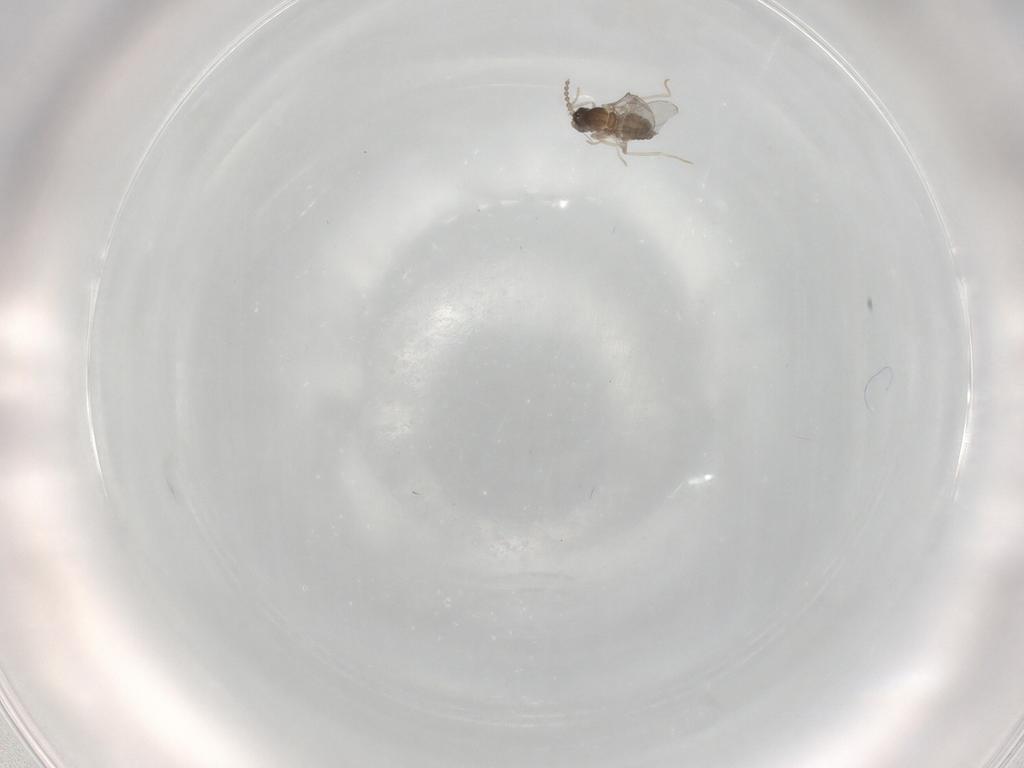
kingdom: Animalia
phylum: Arthropoda
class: Insecta
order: Diptera
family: Cecidomyiidae
